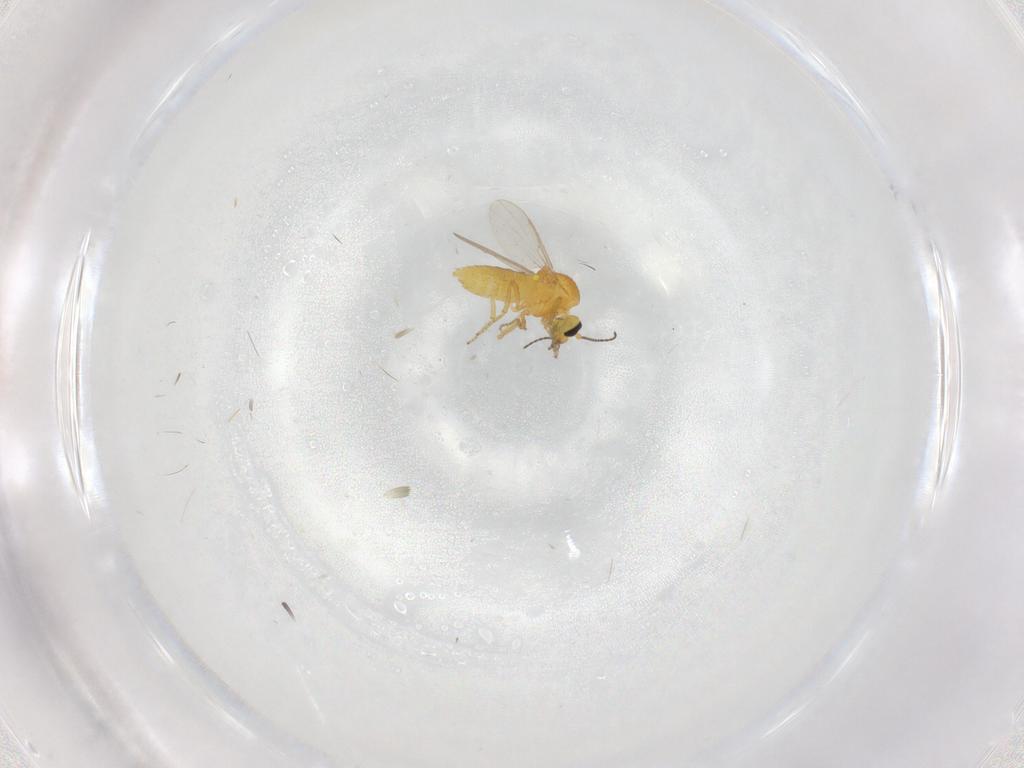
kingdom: Animalia
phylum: Arthropoda
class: Insecta
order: Diptera
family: Ceratopogonidae
